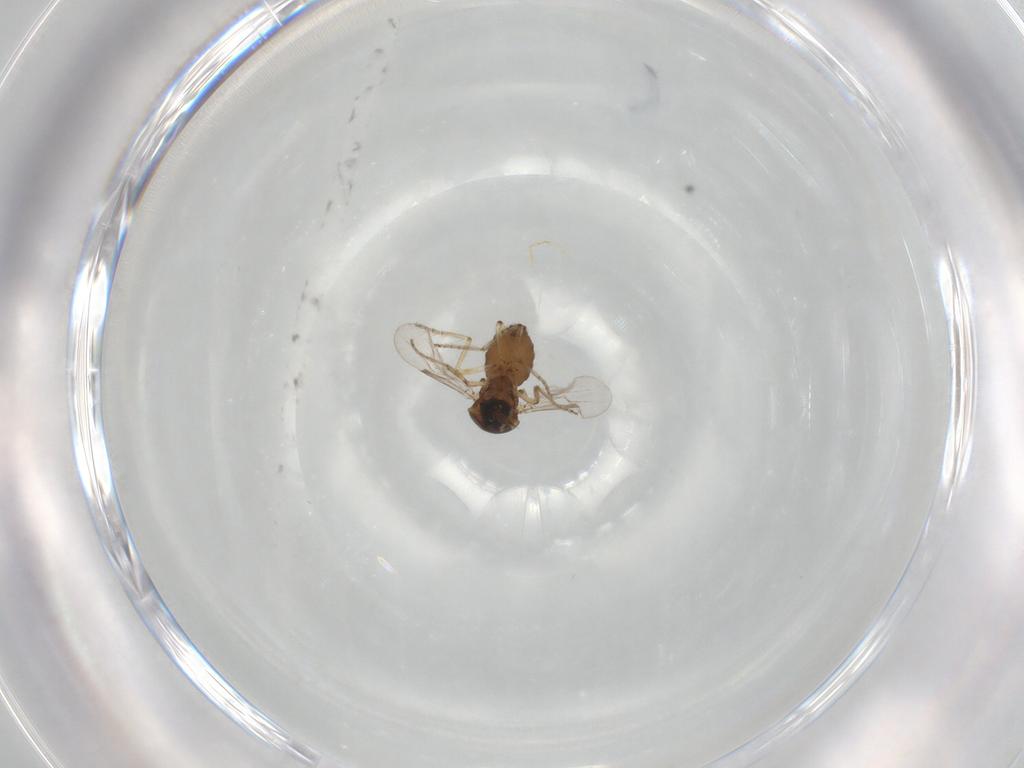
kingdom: Animalia
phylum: Arthropoda
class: Insecta
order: Diptera
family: Ceratopogonidae
